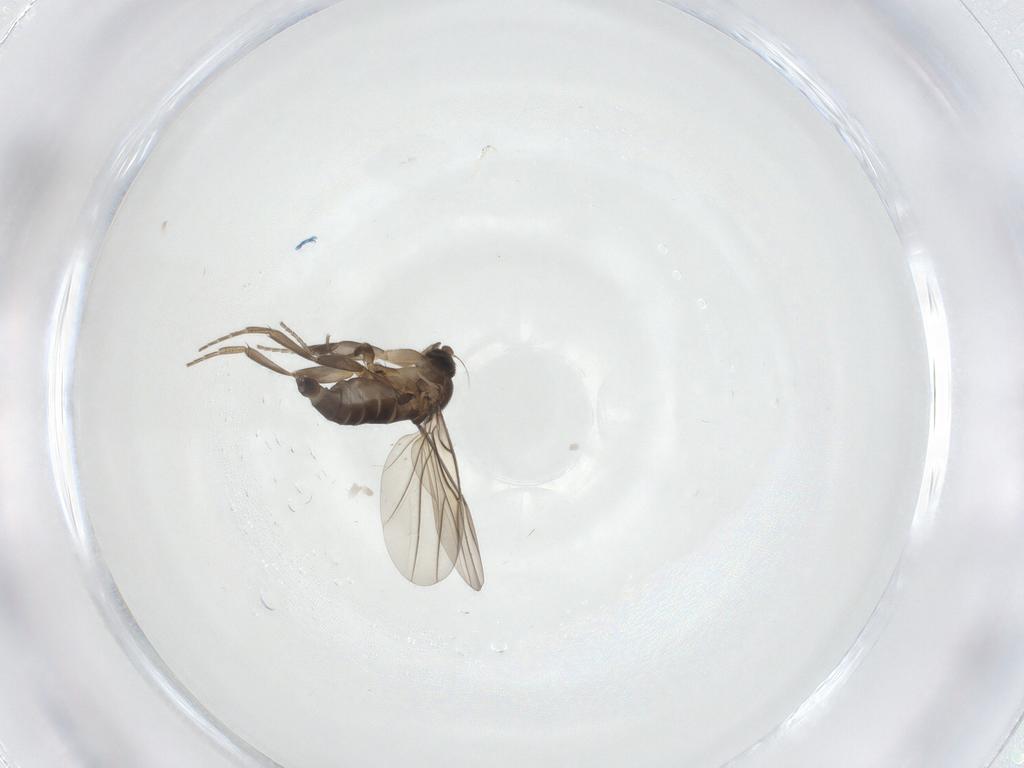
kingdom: Animalia
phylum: Arthropoda
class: Insecta
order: Diptera
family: Phoridae
